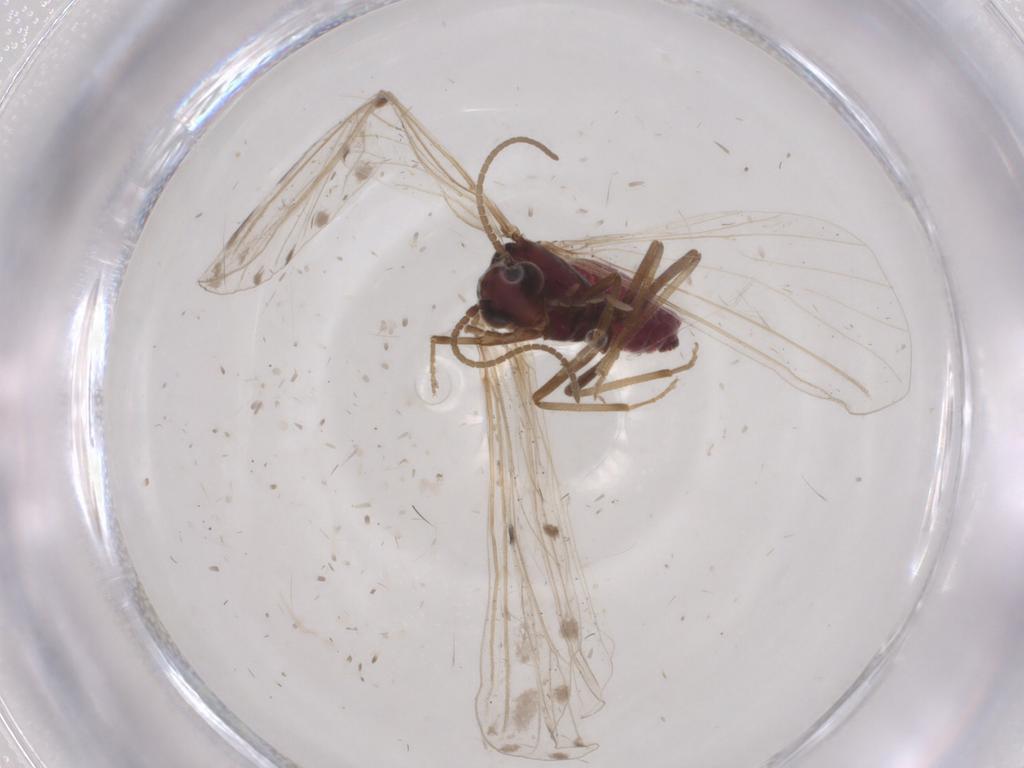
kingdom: Animalia
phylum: Arthropoda
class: Insecta
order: Neuroptera
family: Coniopterygidae
